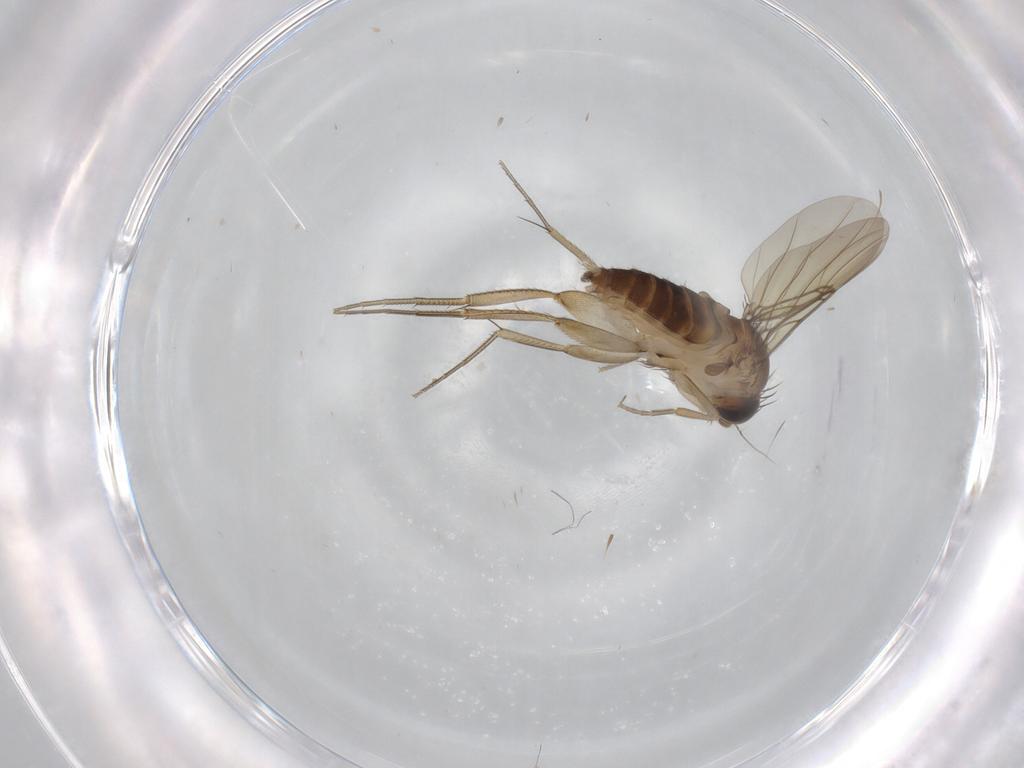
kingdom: Animalia
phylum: Arthropoda
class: Insecta
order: Diptera
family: Phoridae
